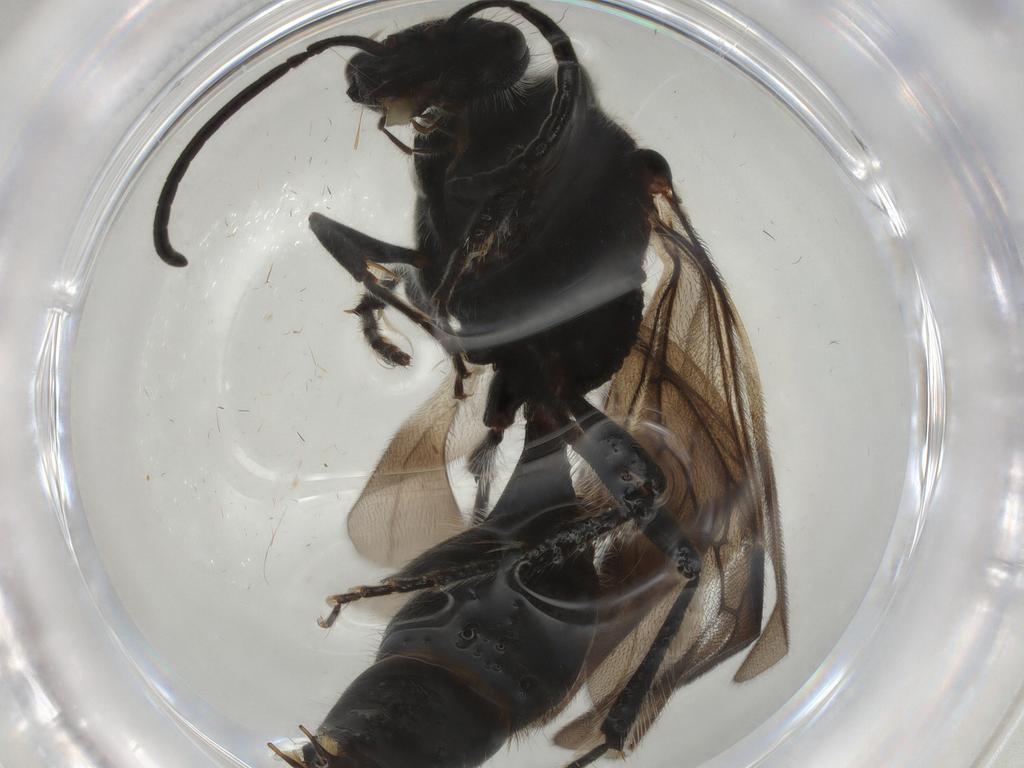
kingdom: Animalia
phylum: Arthropoda
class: Insecta
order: Hymenoptera
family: Mutillidae
